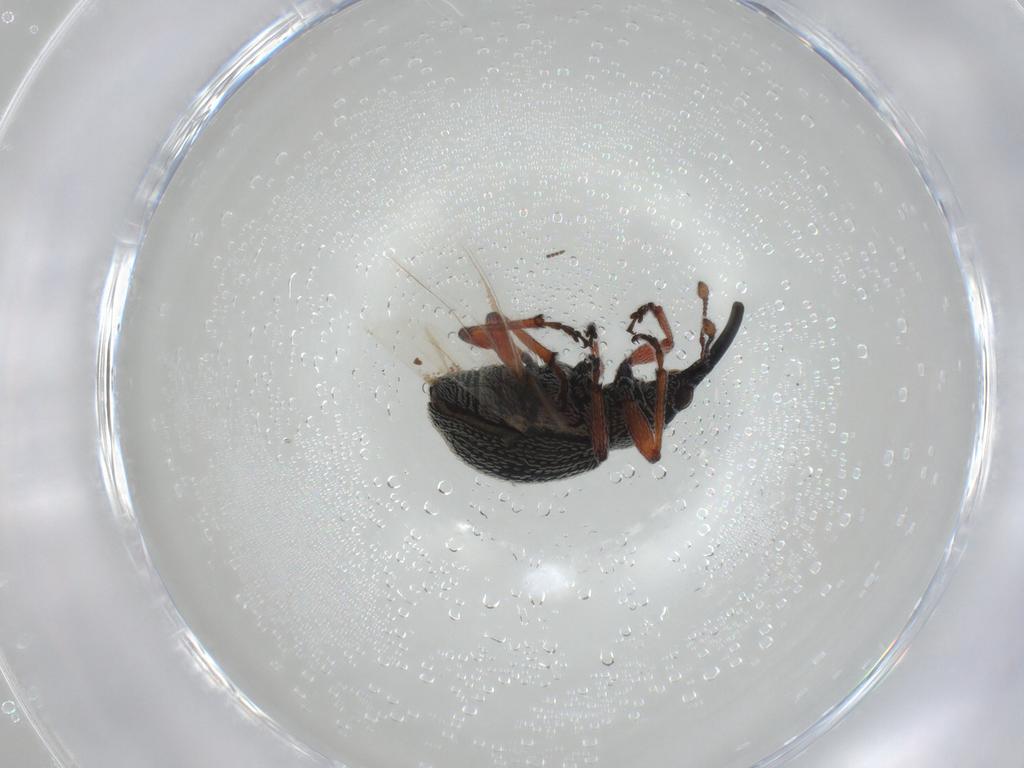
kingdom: Animalia
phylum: Arthropoda
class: Insecta
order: Coleoptera
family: Brentidae
